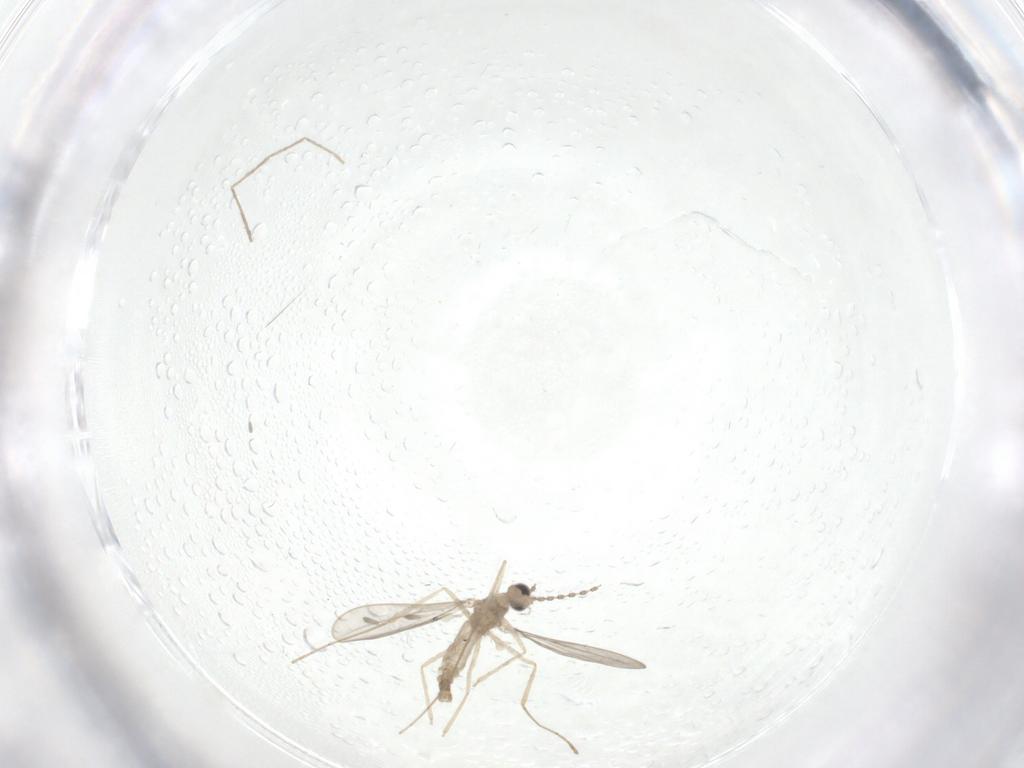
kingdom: Animalia
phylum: Arthropoda
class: Insecta
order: Diptera
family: Cecidomyiidae
